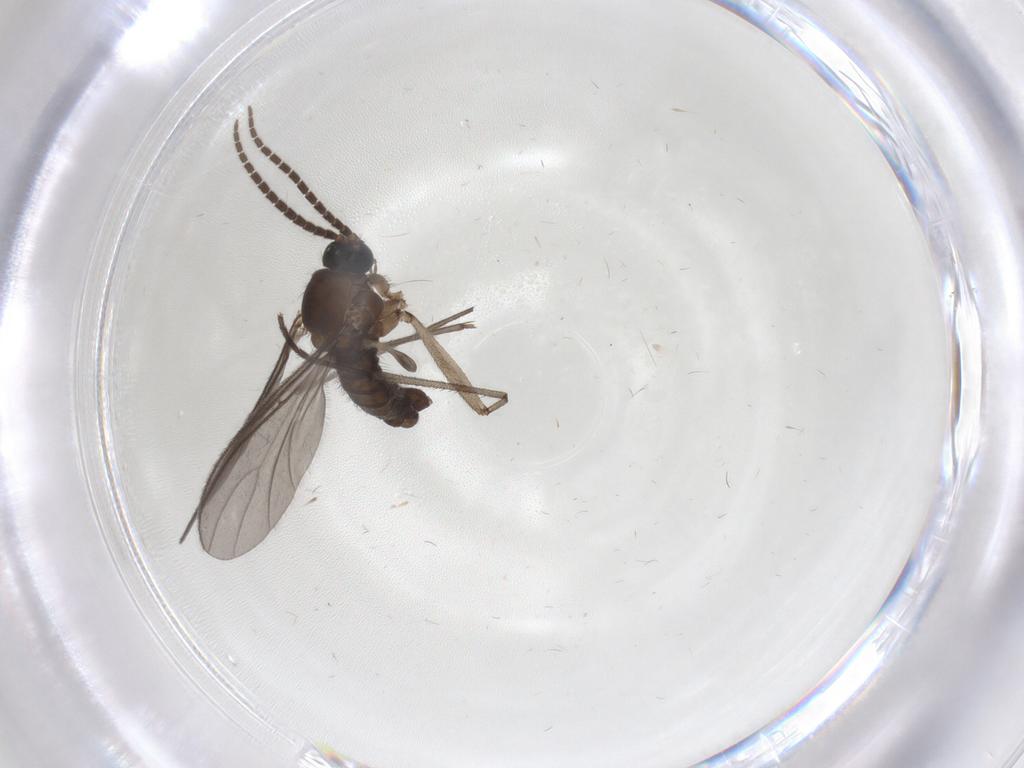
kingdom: Animalia
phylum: Arthropoda
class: Insecta
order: Diptera
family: Sciaridae
